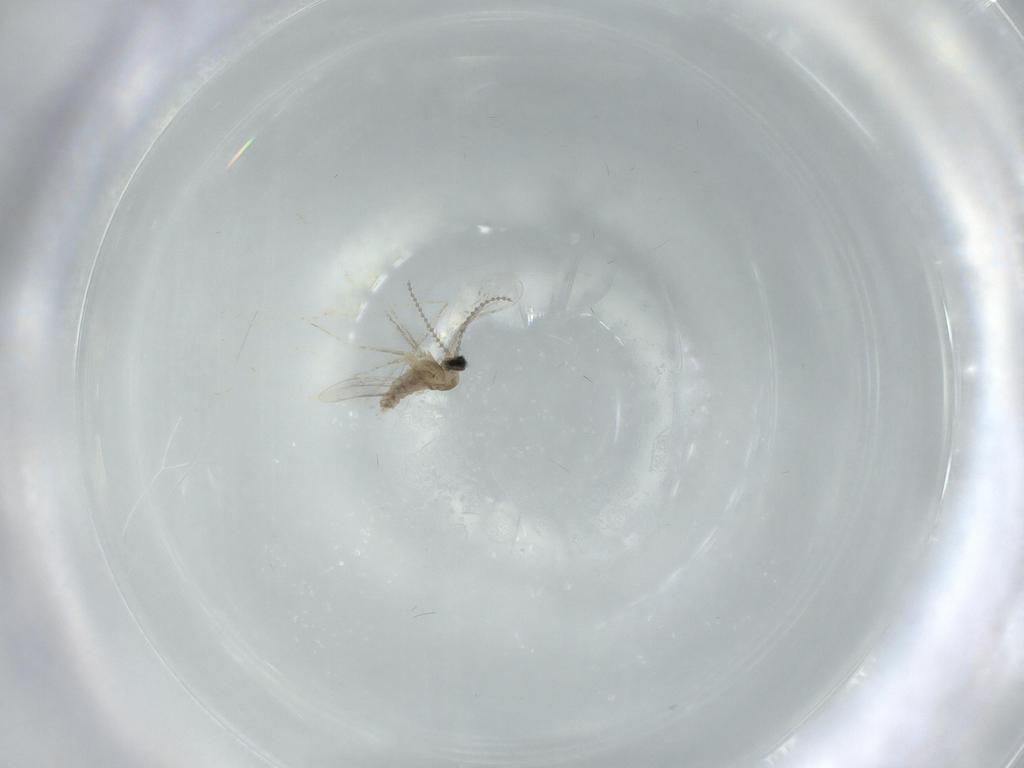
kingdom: Animalia
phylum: Arthropoda
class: Insecta
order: Diptera
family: Cecidomyiidae
